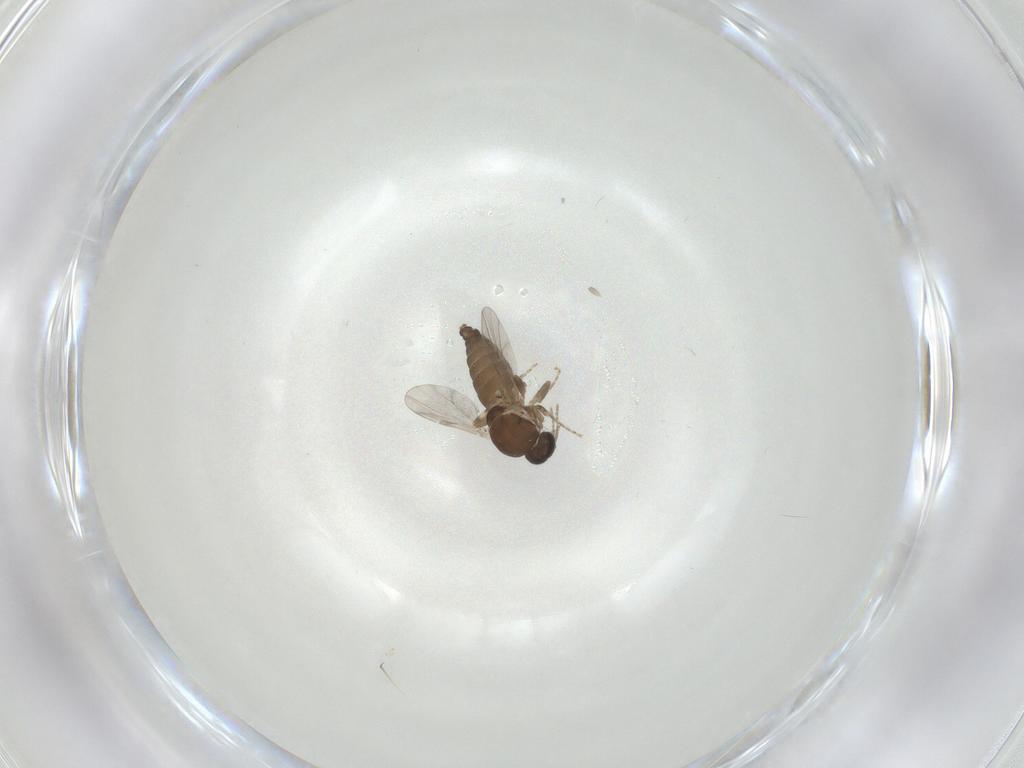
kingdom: Animalia
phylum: Arthropoda
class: Insecta
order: Diptera
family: Ceratopogonidae
